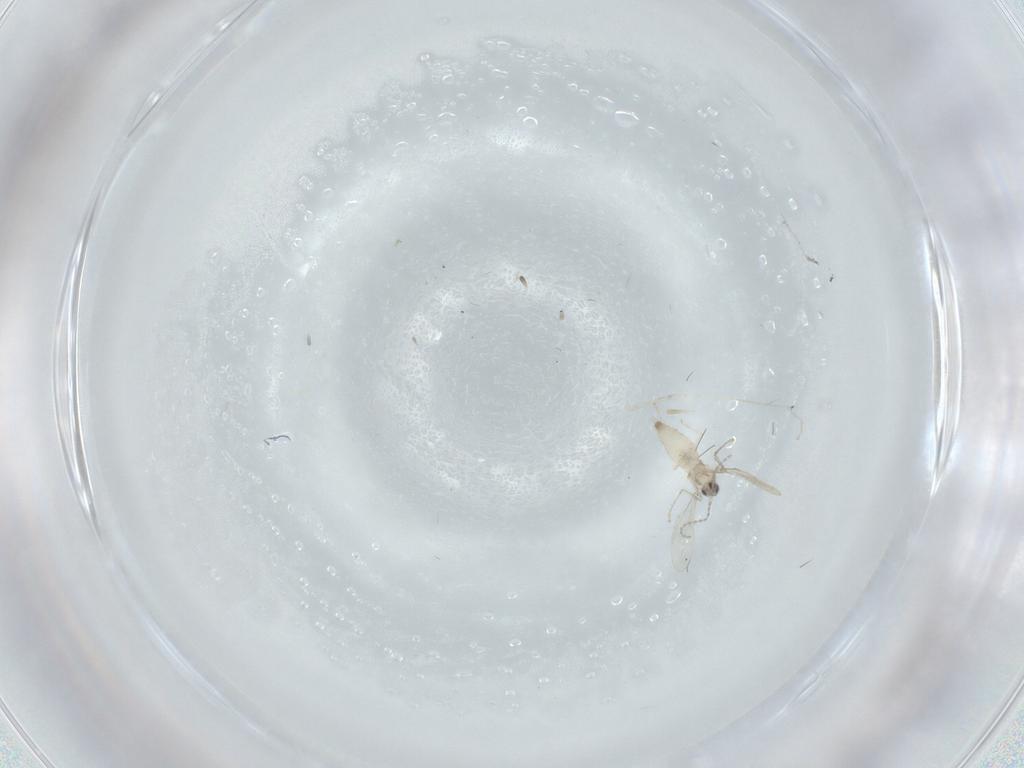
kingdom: Animalia
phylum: Arthropoda
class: Insecta
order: Diptera
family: Cecidomyiidae
